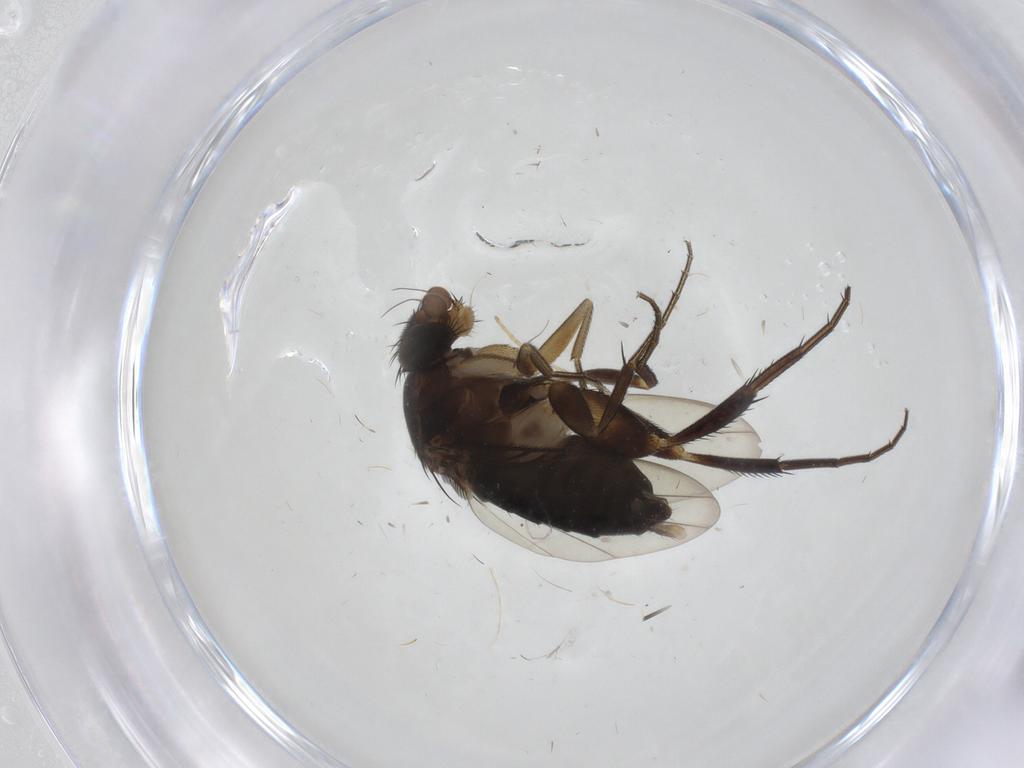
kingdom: Animalia
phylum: Arthropoda
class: Insecta
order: Diptera
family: Phoridae
